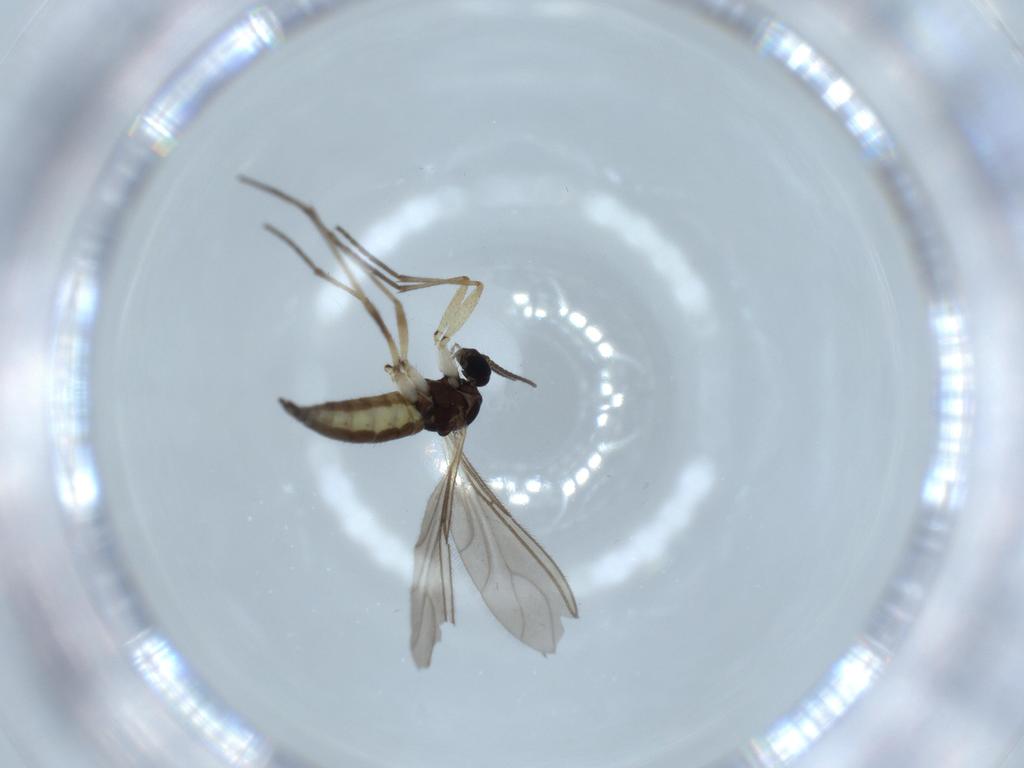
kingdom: Animalia
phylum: Arthropoda
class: Insecta
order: Diptera
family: Sciaridae
